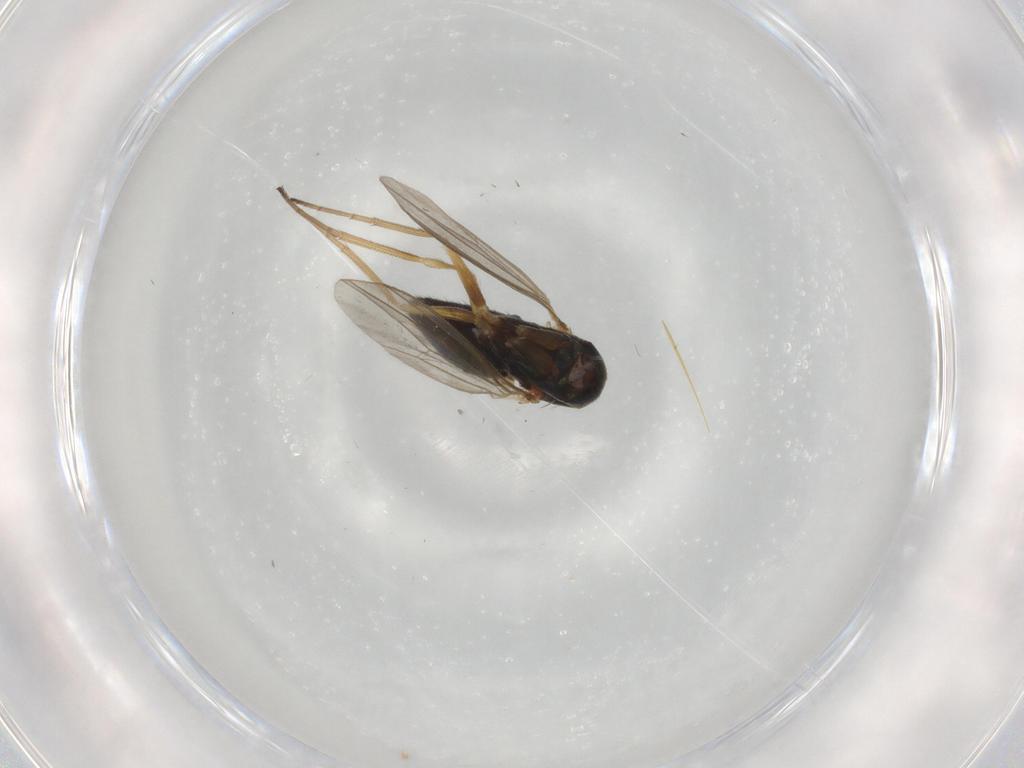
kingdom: Animalia
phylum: Arthropoda
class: Insecta
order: Diptera
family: Dolichopodidae
